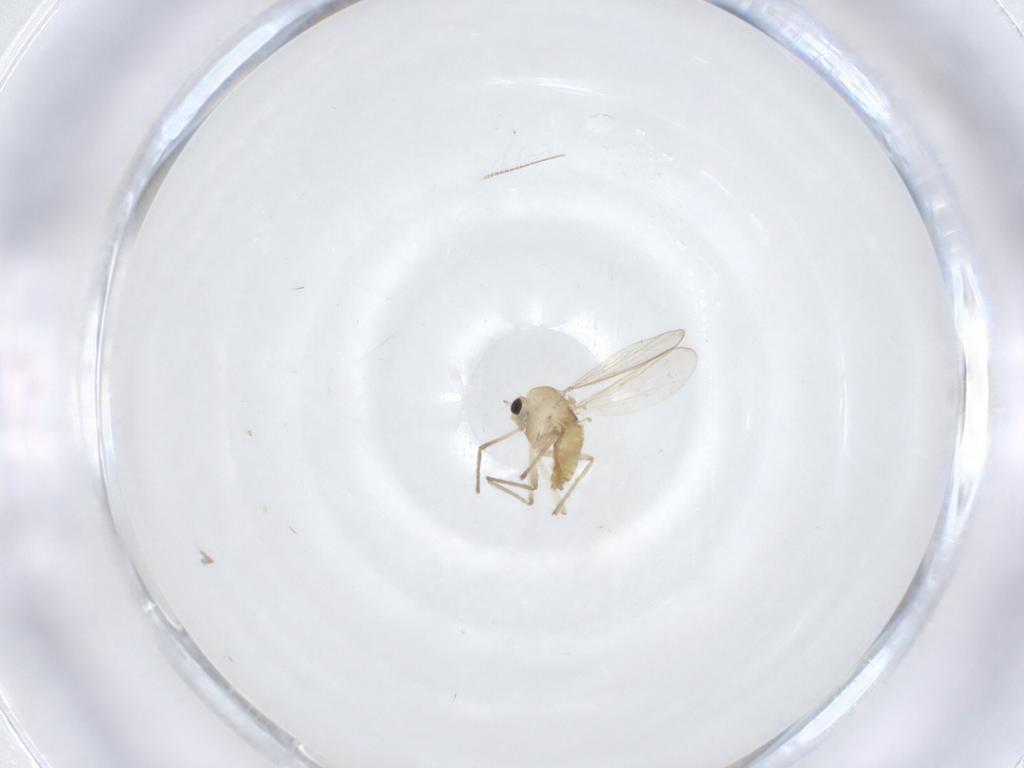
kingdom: Animalia
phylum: Arthropoda
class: Insecta
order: Diptera
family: Chironomidae
